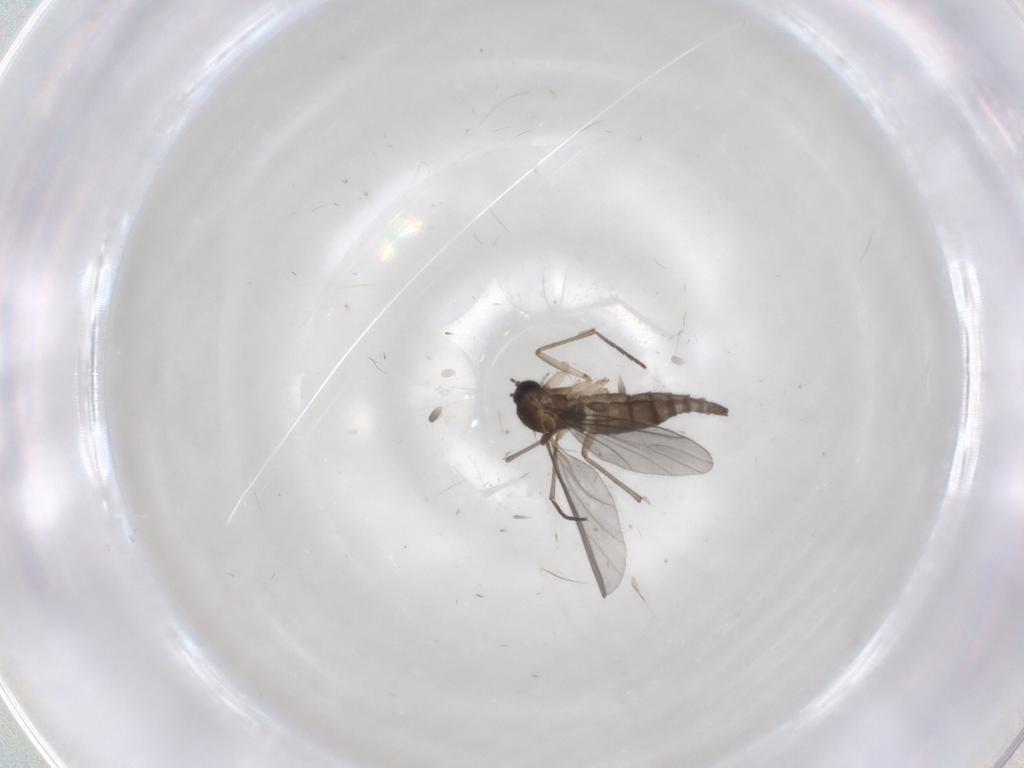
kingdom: Animalia
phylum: Arthropoda
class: Insecta
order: Diptera
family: Sciaridae
